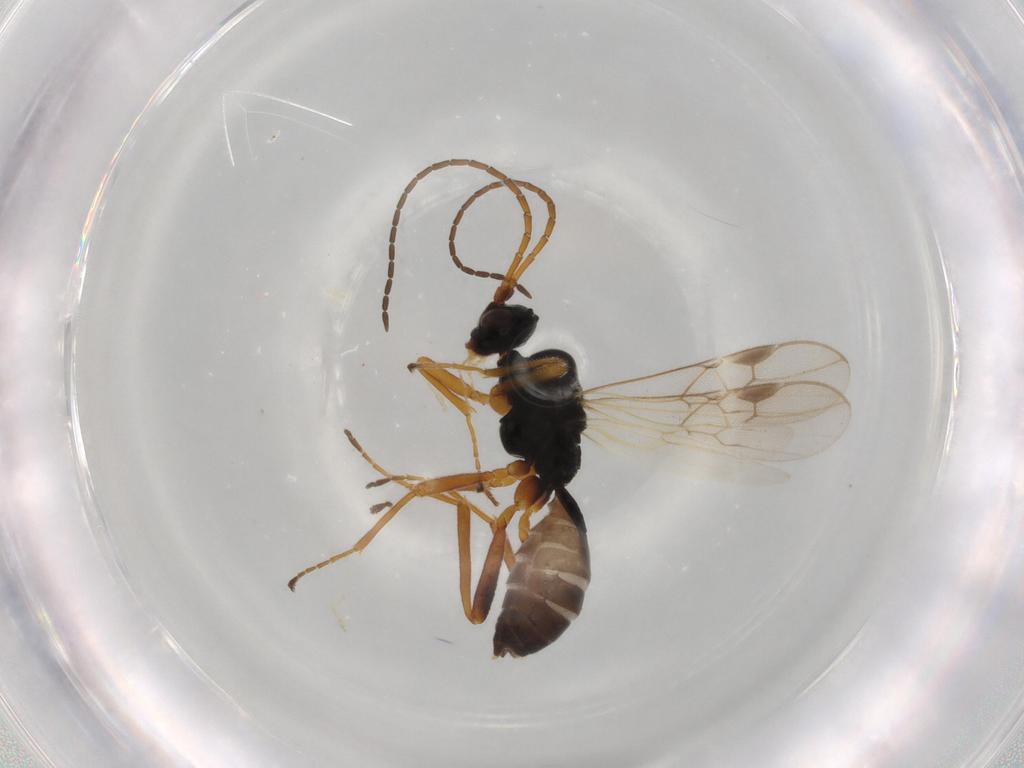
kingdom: Animalia
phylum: Arthropoda
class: Insecta
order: Hymenoptera
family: Braconidae
